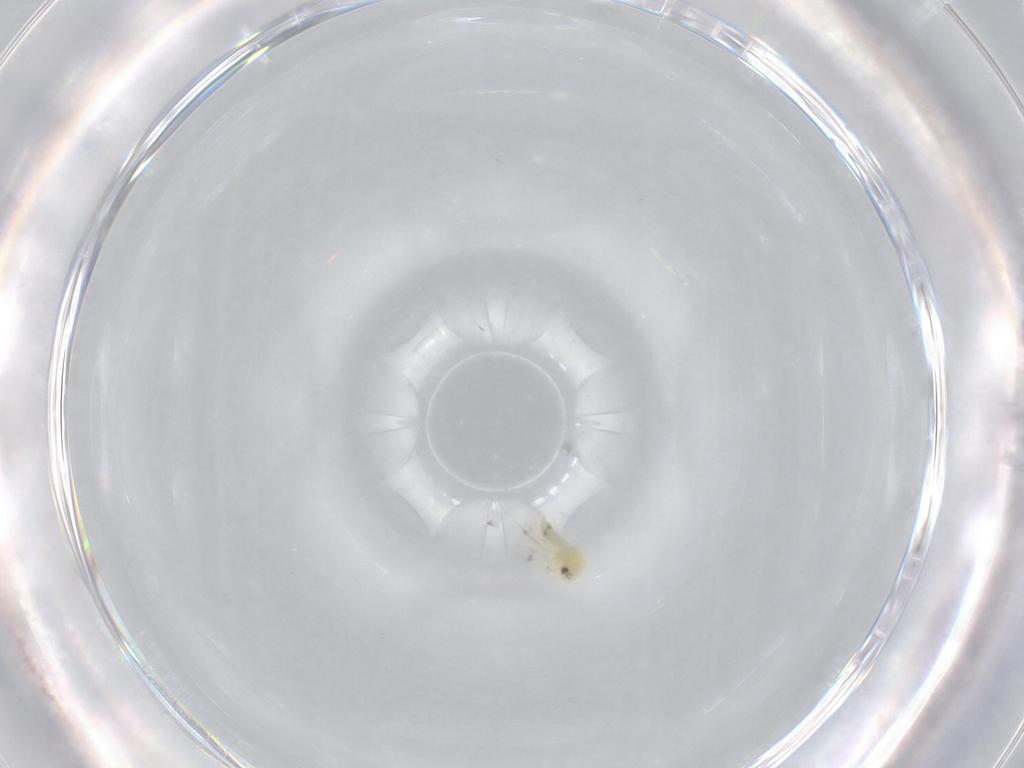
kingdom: Animalia
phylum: Arthropoda
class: Insecta
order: Hemiptera
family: Aleyrodidae
